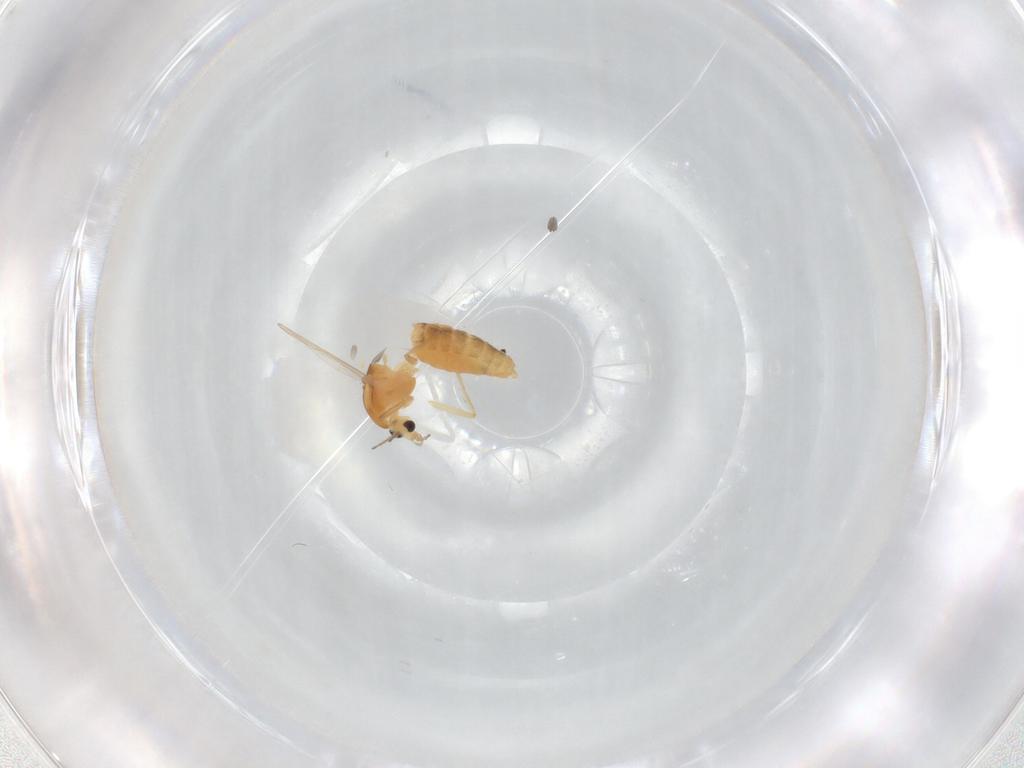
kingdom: Animalia
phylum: Arthropoda
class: Insecta
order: Diptera
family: Chironomidae
